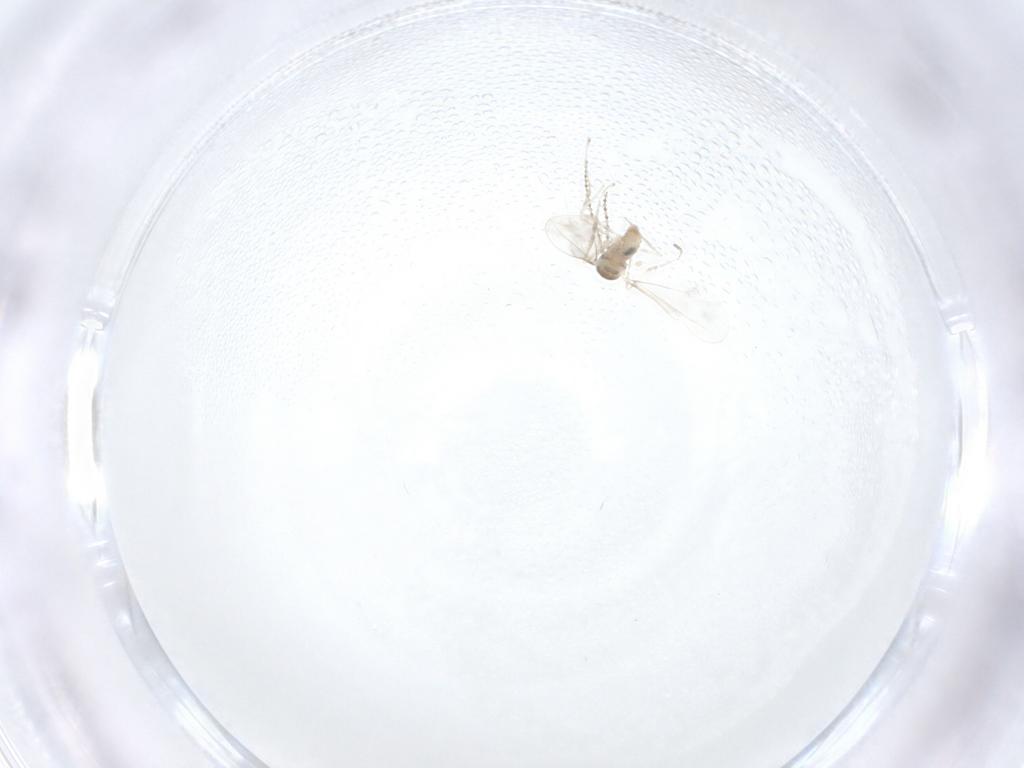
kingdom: Animalia
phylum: Arthropoda
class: Insecta
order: Diptera
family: Cecidomyiidae
